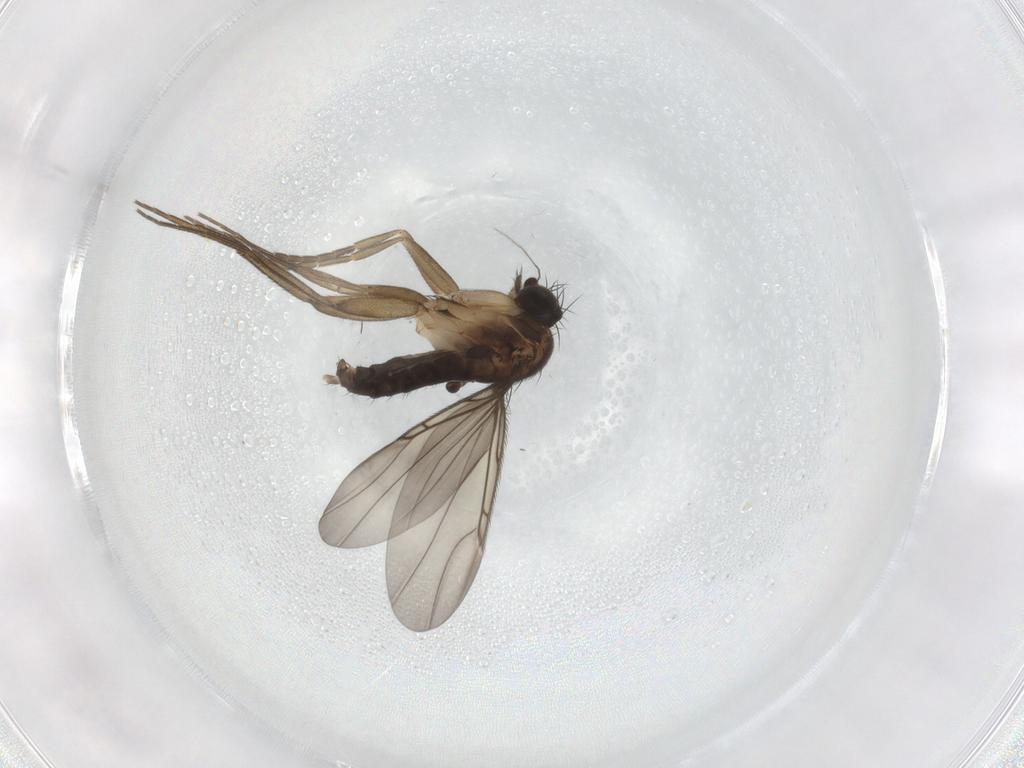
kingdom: Animalia
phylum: Arthropoda
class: Insecta
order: Diptera
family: Phoridae
